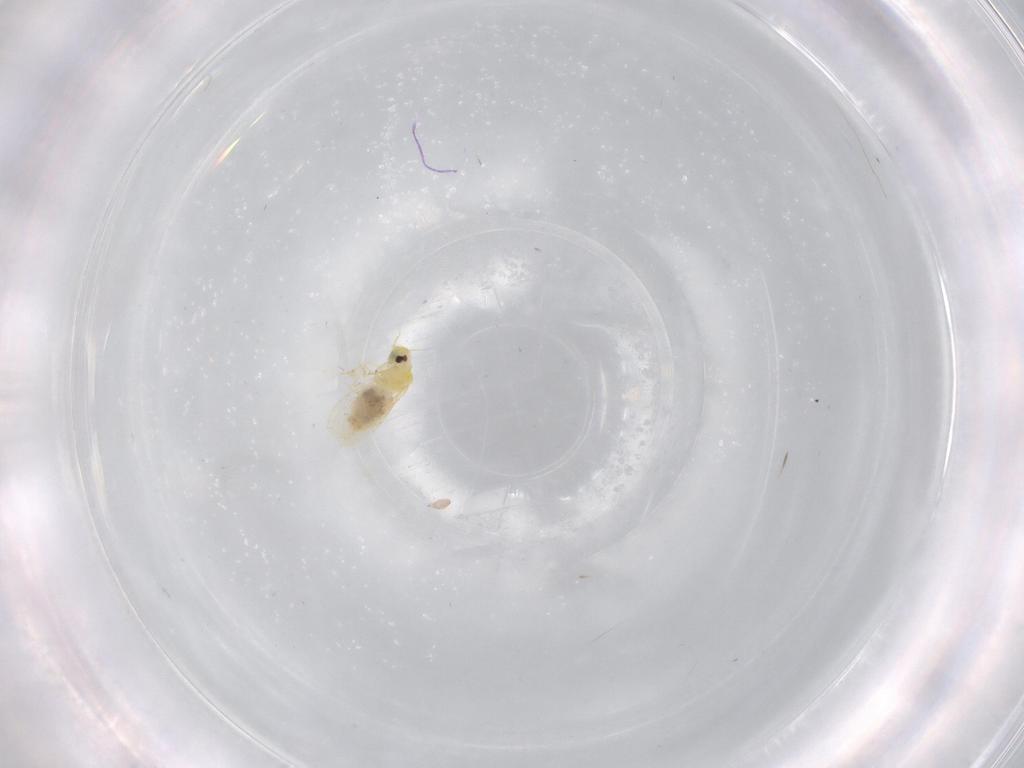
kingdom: Animalia
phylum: Arthropoda
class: Insecta
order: Hemiptera
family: Aleyrodidae
